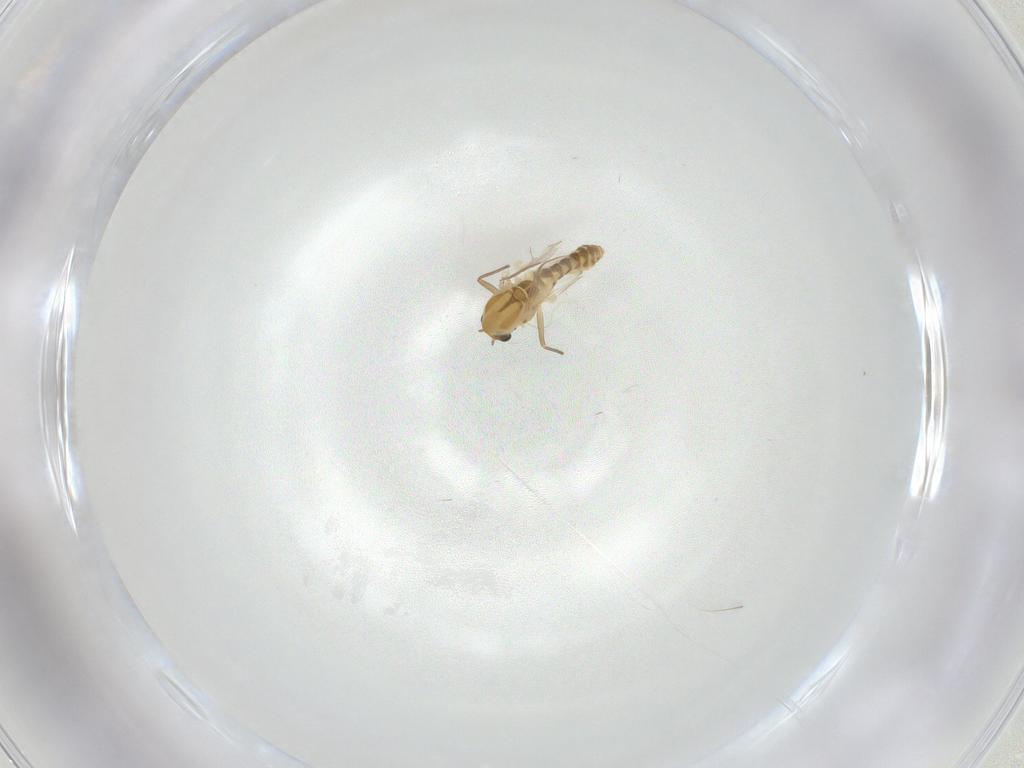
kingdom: Animalia
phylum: Arthropoda
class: Insecta
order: Diptera
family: Chironomidae
